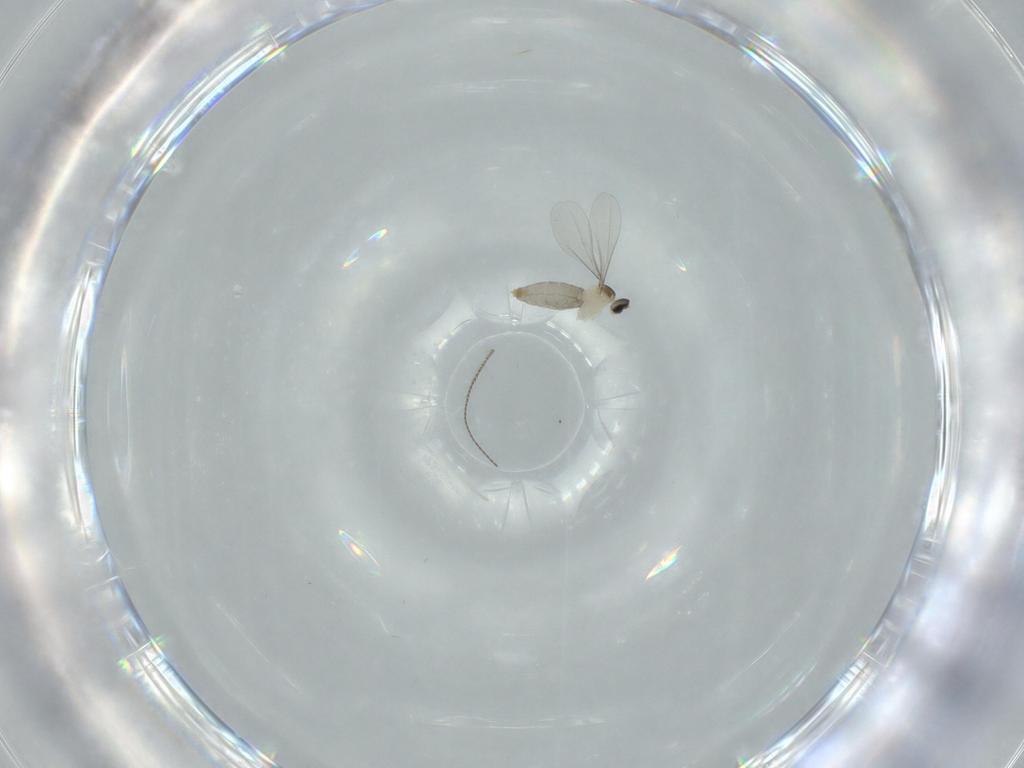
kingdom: Animalia
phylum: Arthropoda
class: Insecta
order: Diptera
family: Milichiidae
